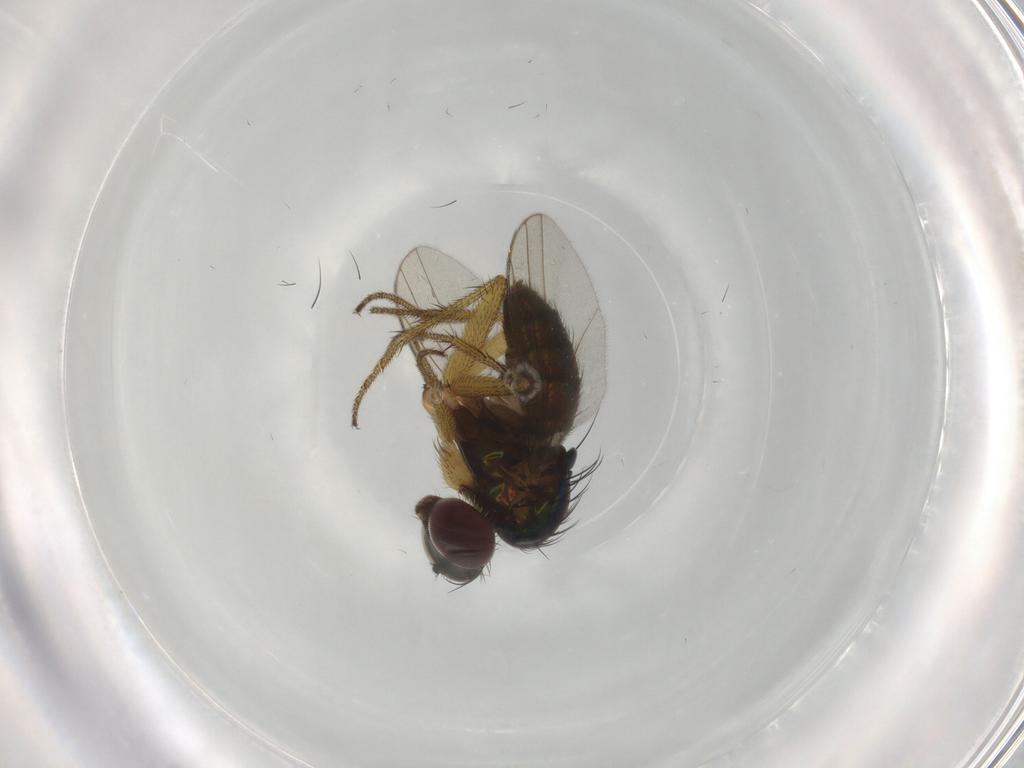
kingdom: Animalia
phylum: Arthropoda
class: Insecta
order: Diptera
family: Dolichopodidae
